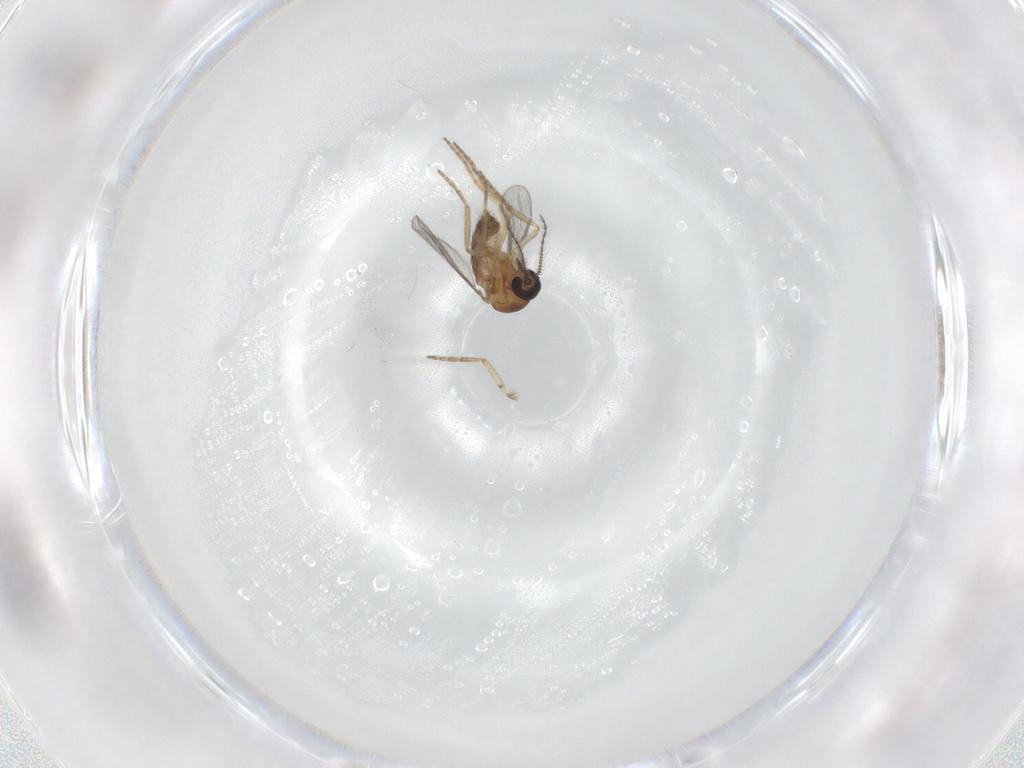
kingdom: Animalia
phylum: Arthropoda
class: Insecta
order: Diptera
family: Ceratopogonidae
